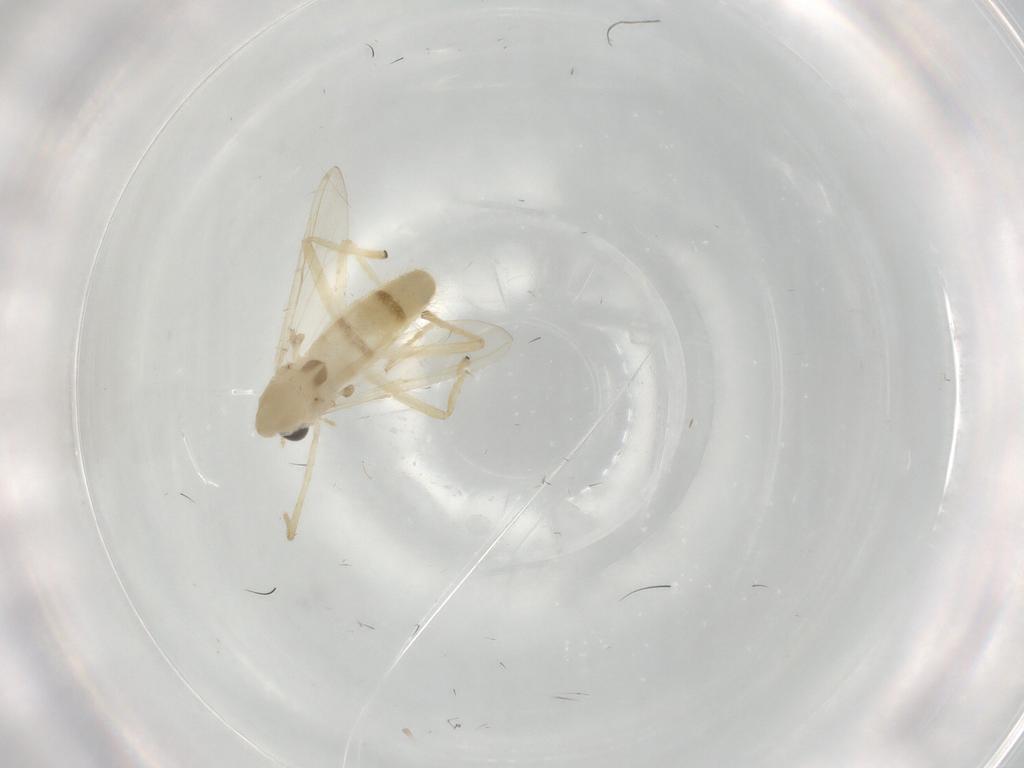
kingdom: Animalia
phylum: Arthropoda
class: Insecta
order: Diptera
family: Chironomidae
